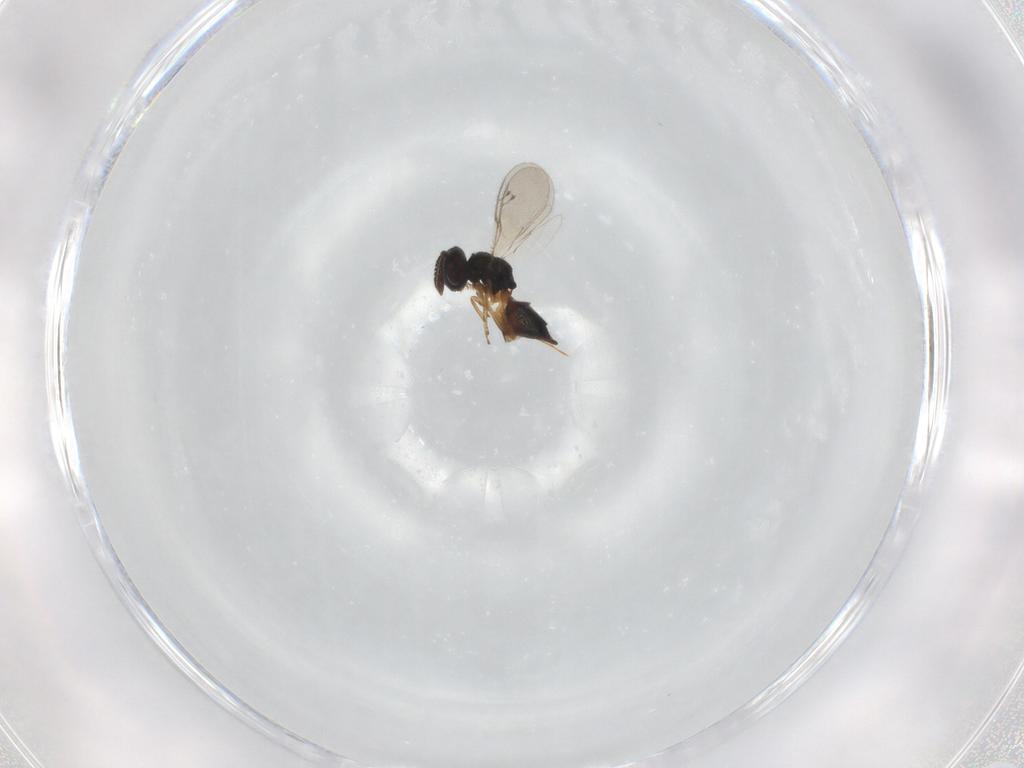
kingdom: Animalia
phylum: Arthropoda
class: Insecta
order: Hymenoptera
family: Pteromalidae
